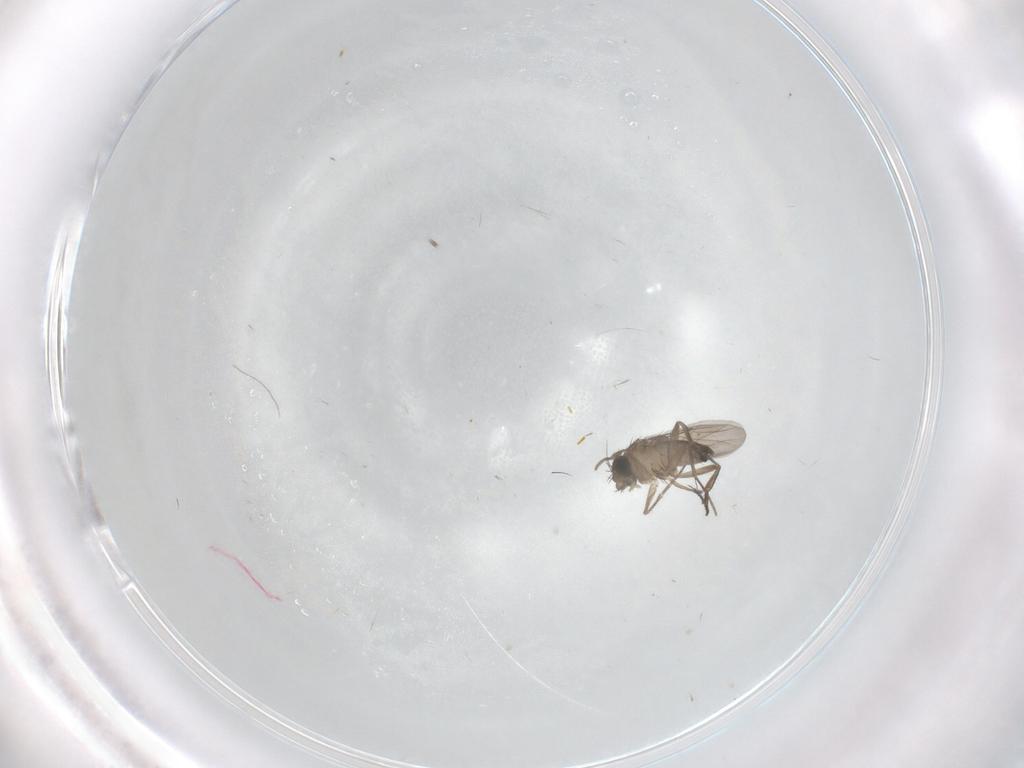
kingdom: Animalia
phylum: Arthropoda
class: Insecta
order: Diptera
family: Phoridae
